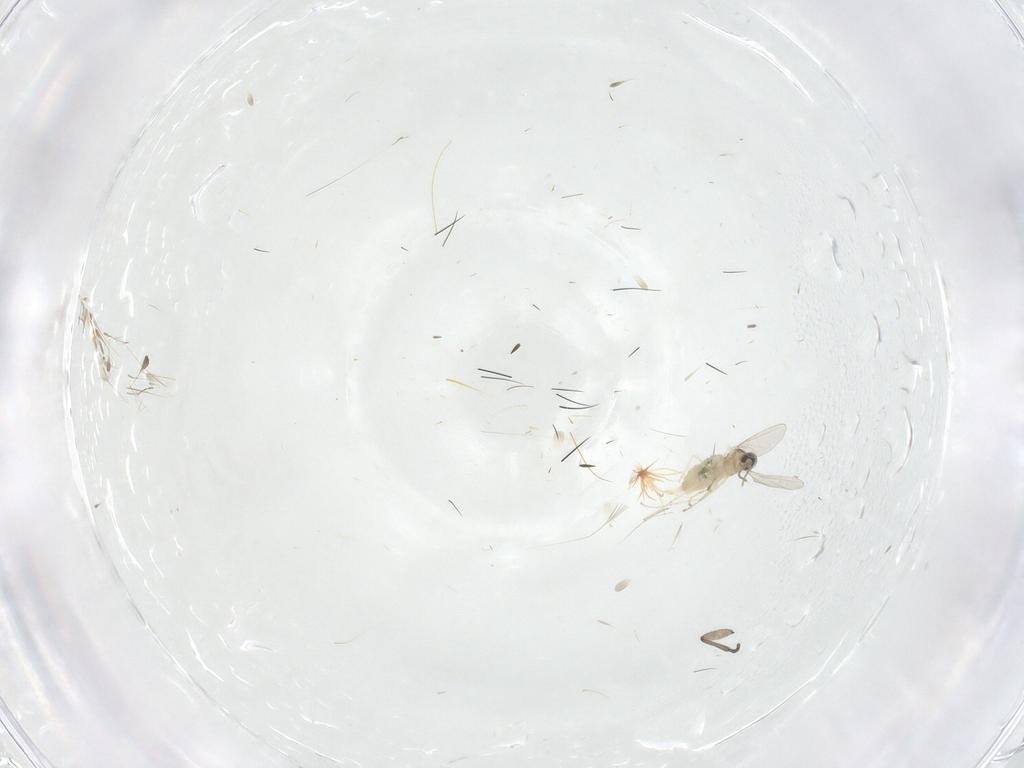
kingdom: Animalia
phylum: Arthropoda
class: Insecta
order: Diptera
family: Cecidomyiidae
